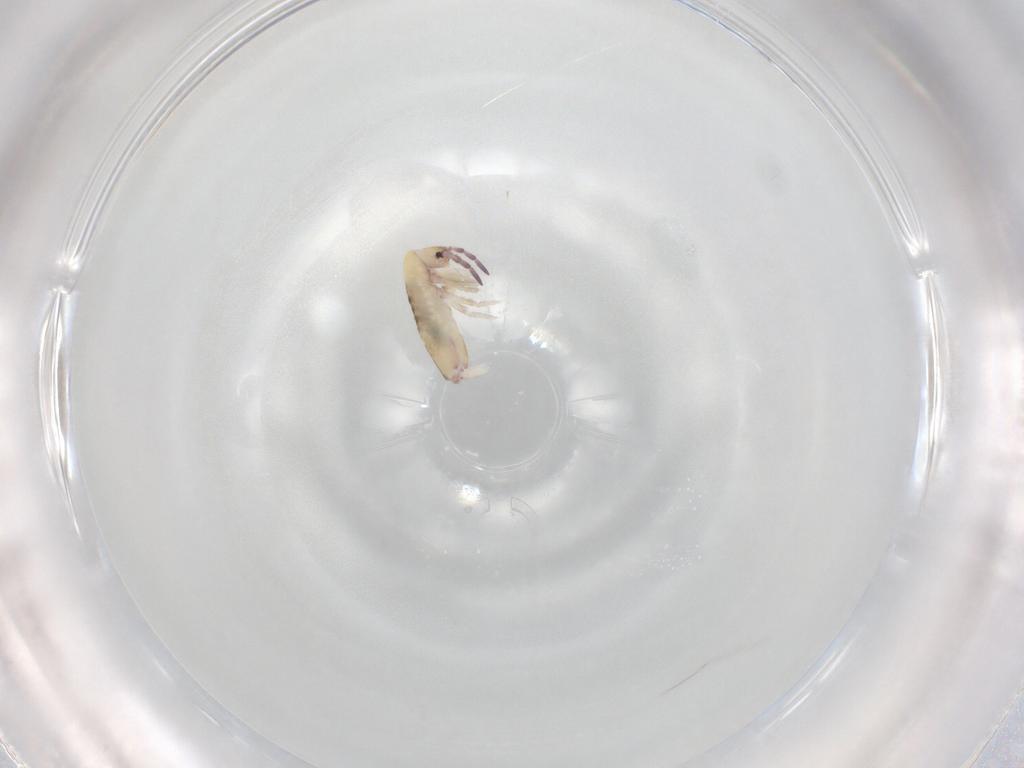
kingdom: Animalia
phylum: Arthropoda
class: Collembola
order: Entomobryomorpha
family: Entomobryidae
